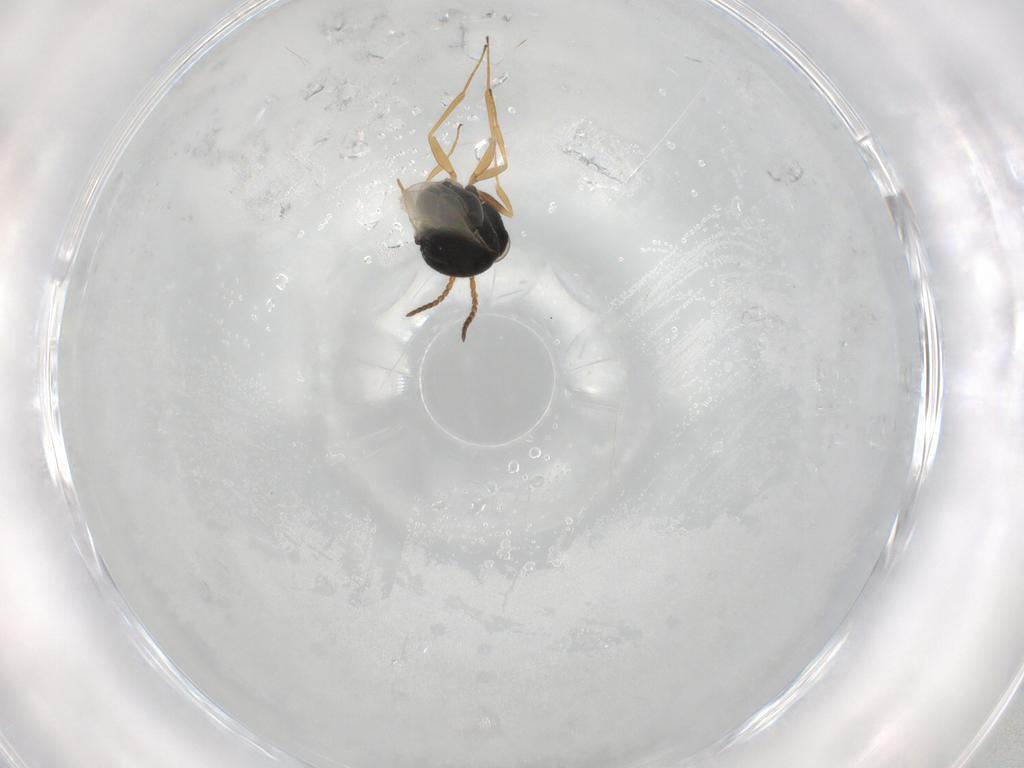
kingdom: Animalia
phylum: Arthropoda
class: Insecta
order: Hymenoptera
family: Scelionidae
